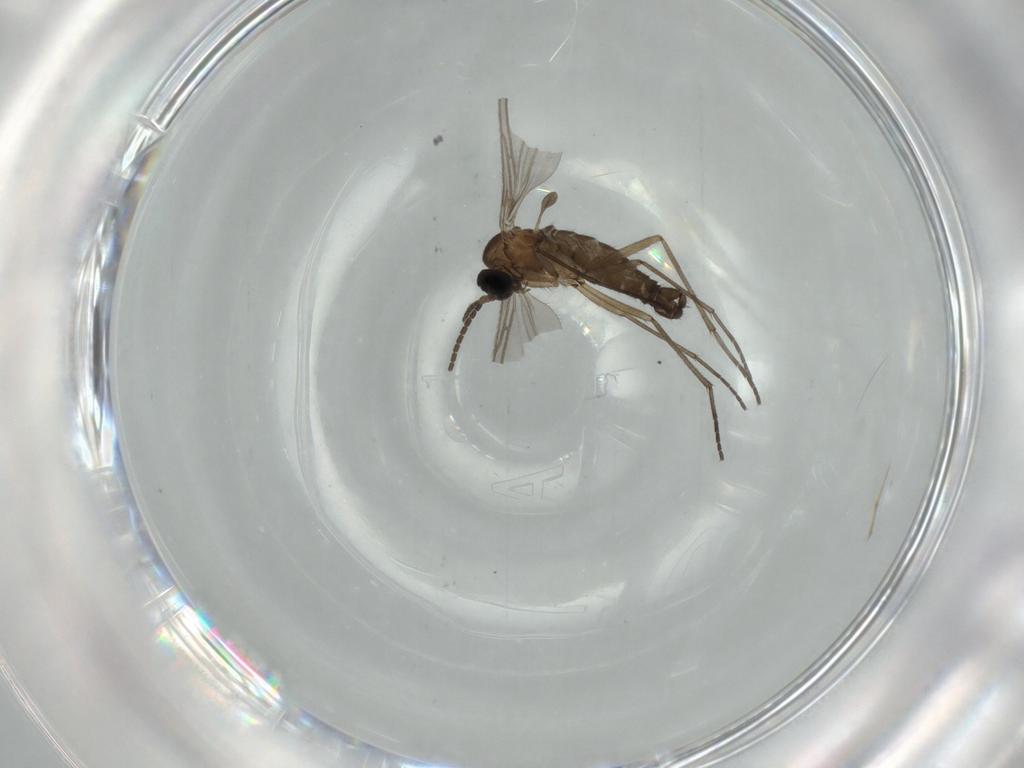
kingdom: Animalia
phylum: Arthropoda
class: Insecta
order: Diptera
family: Sciaridae
